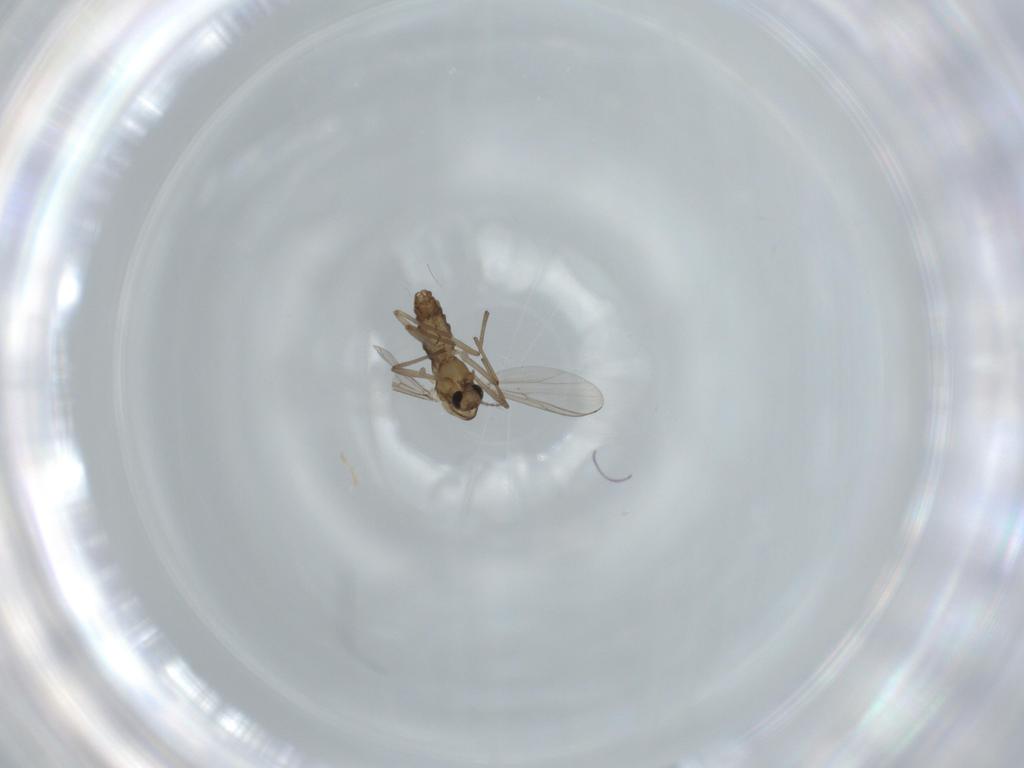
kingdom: Animalia
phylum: Arthropoda
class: Insecta
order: Diptera
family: Chironomidae
